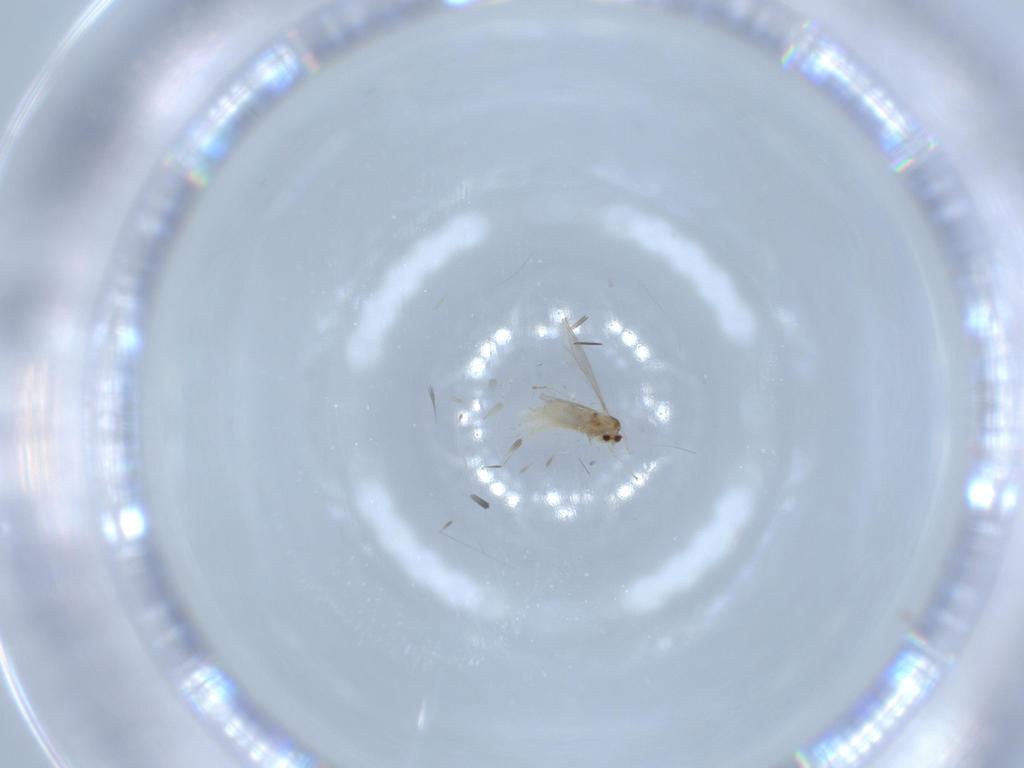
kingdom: Animalia
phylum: Arthropoda
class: Insecta
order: Diptera
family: Cecidomyiidae
